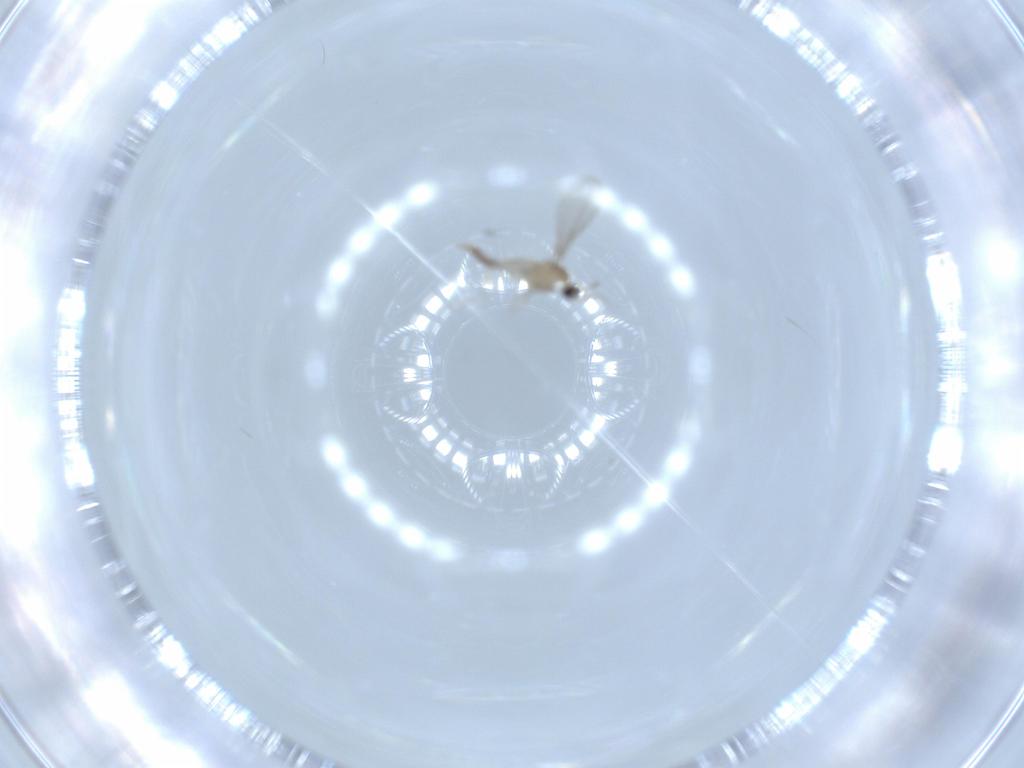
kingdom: Animalia
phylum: Arthropoda
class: Insecta
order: Diptera
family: Cecidomyiidae
